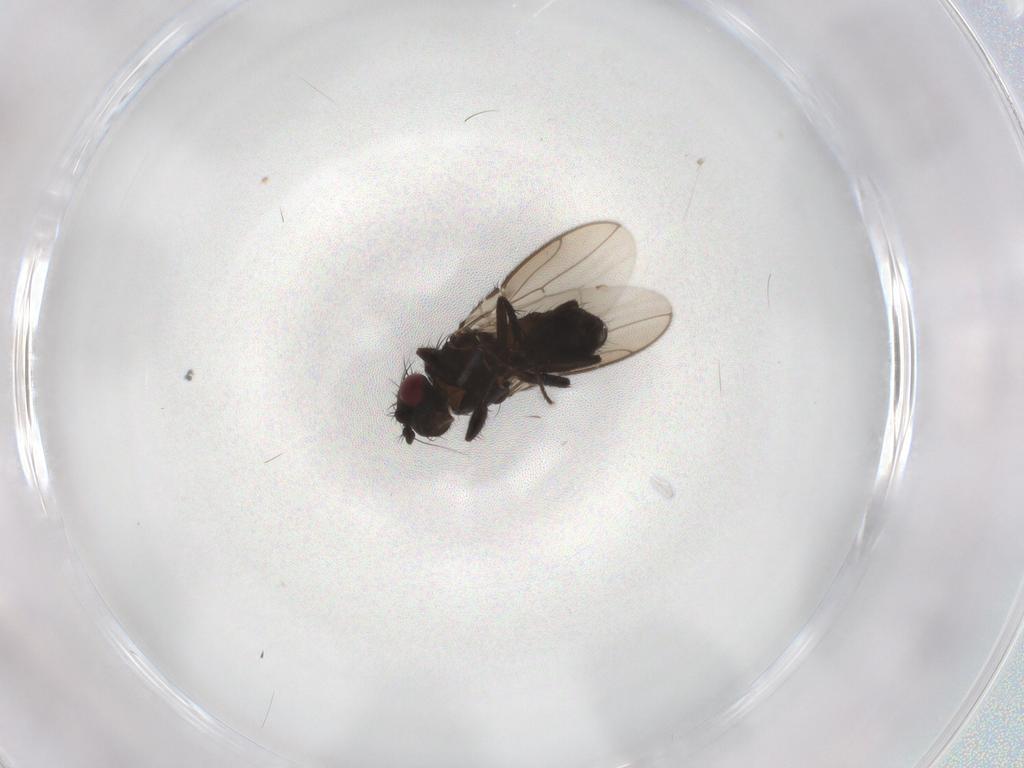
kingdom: Animalia
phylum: Arthropoda
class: Insecta
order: Diptera
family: Sphaeroceridae
